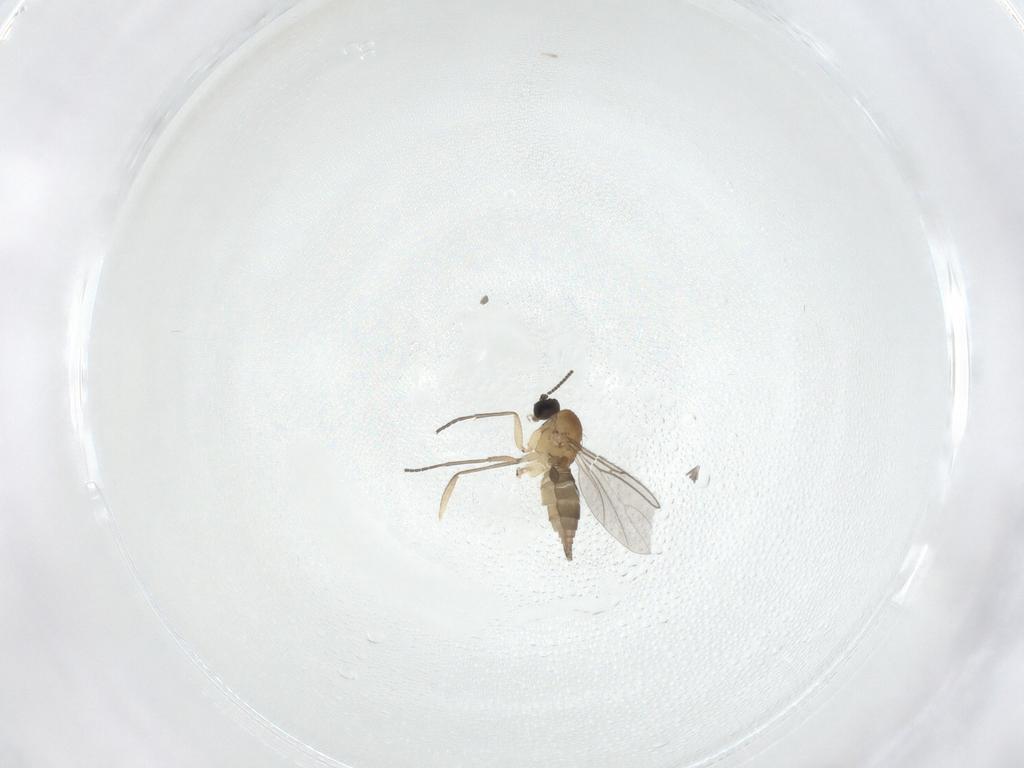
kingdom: Animalia
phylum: Arthropoda
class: Insecta
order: Diptera
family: Sciaridae
